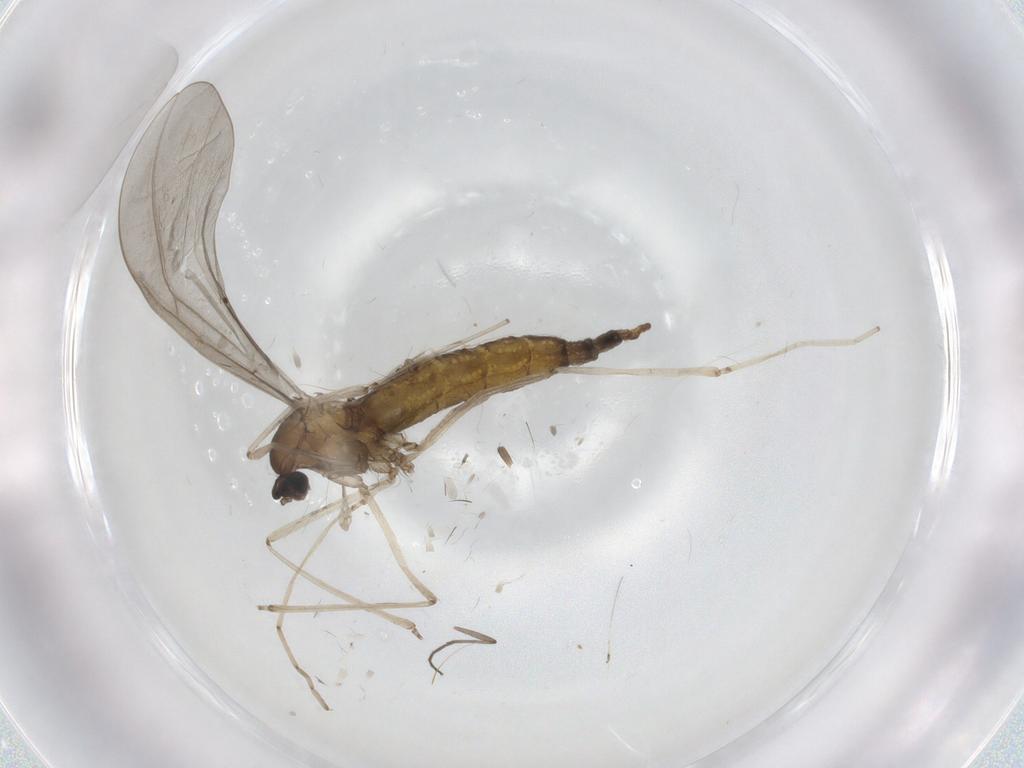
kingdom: Animalia
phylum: Arthropoda
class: Insecta
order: Diptera
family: Cecidomyiidae
